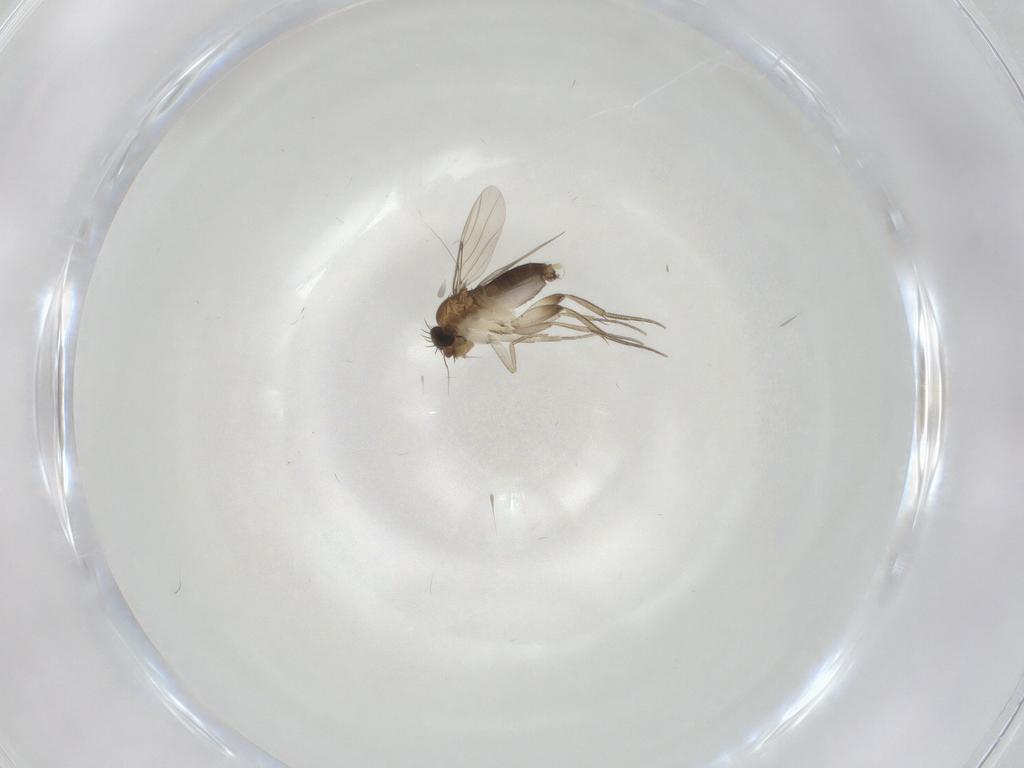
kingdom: Animalia
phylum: Arthropoda
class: Insecta
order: Diptera
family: Phoridae
